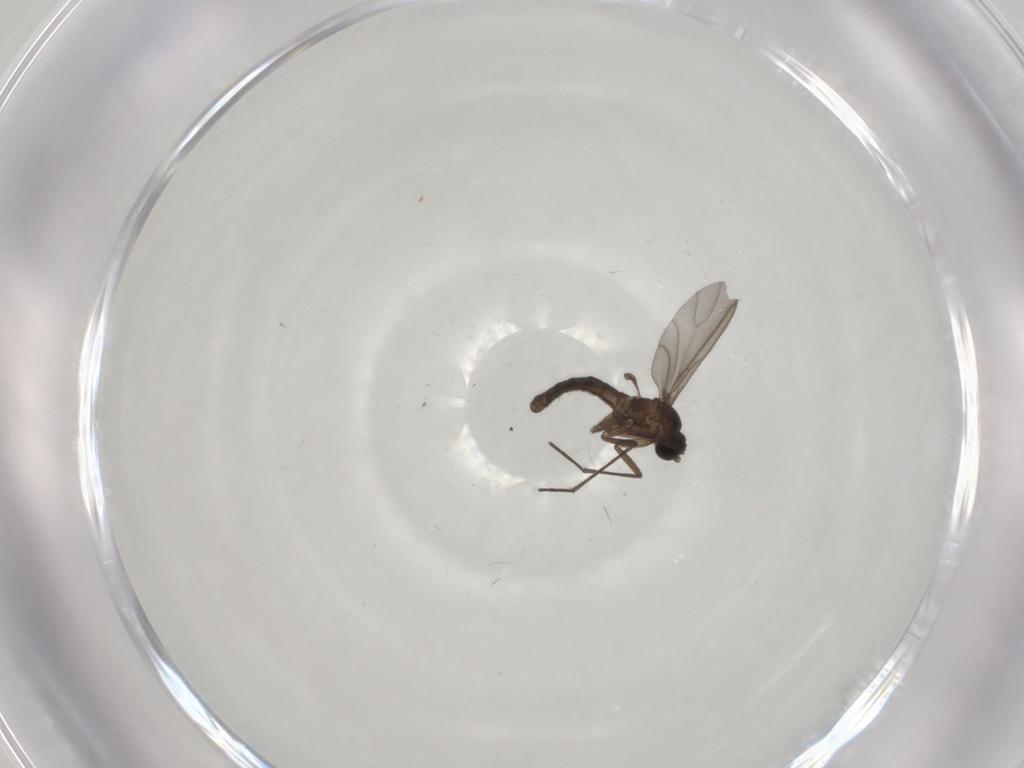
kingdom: Animalia
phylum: Arthropoda
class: Insecta
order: Diptera
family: Sciaridae
